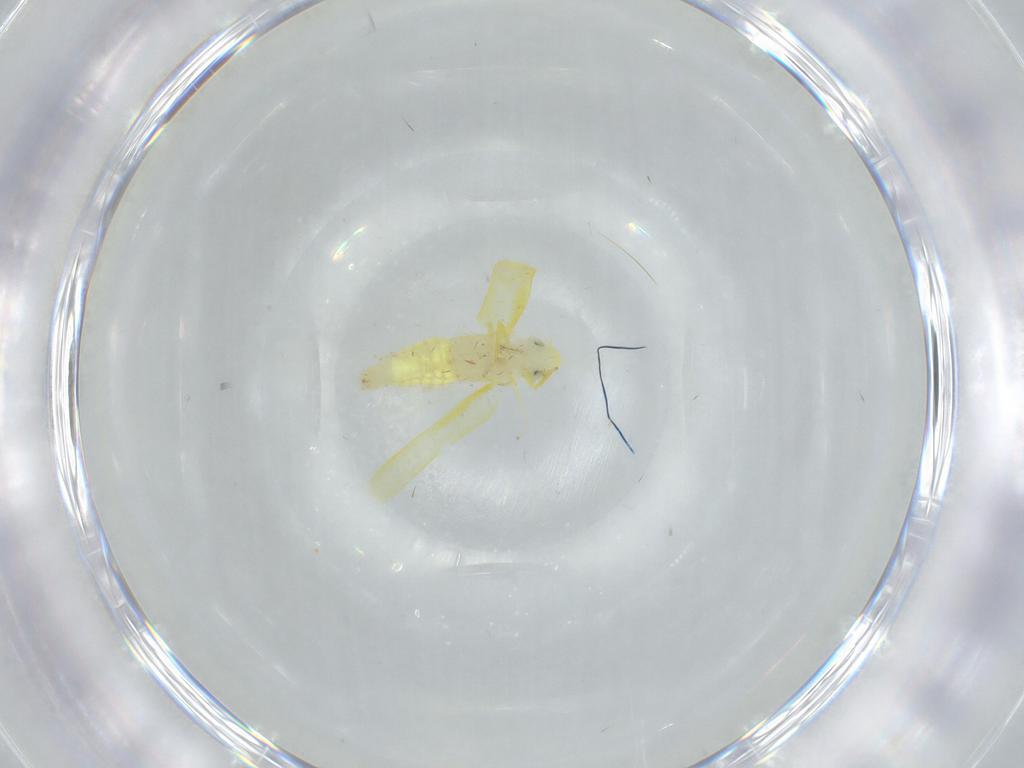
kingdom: Animalia
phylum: Arthropoda
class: Insecta
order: Hemiptera
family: Cicadellidae
